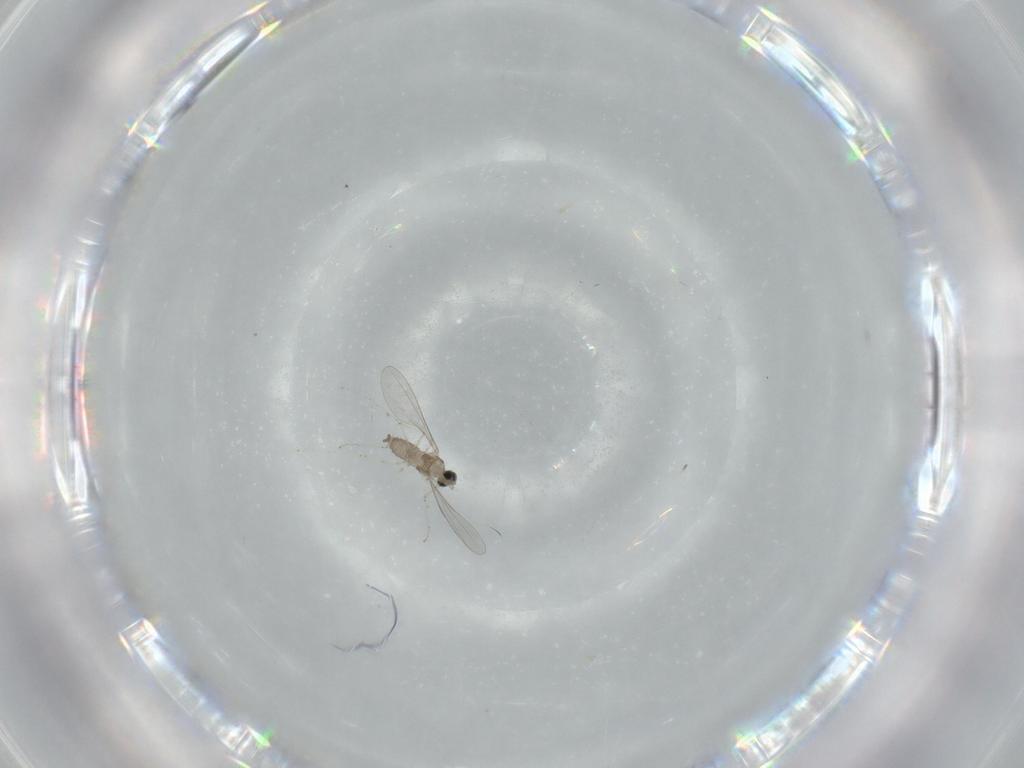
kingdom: Animalia
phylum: Arthropoda
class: Insecta
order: Diptera
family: Cecidomyiidae
